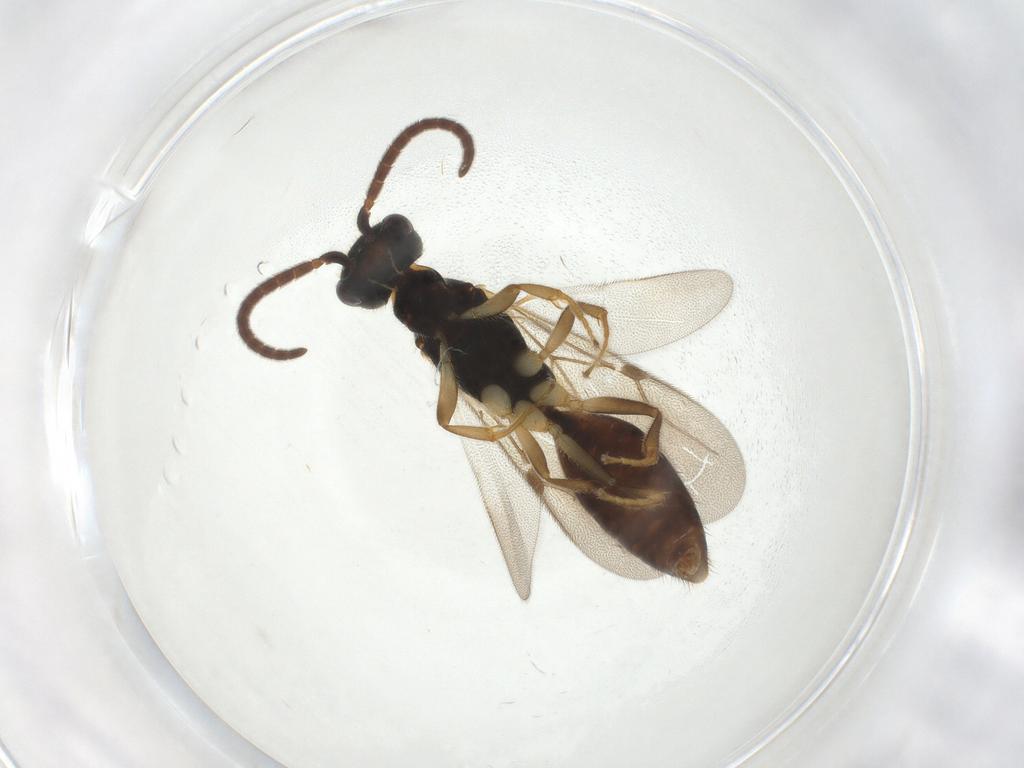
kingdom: Animalia
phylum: Arthropoda
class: Insecta
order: Hymenoptera
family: Bethylidae
